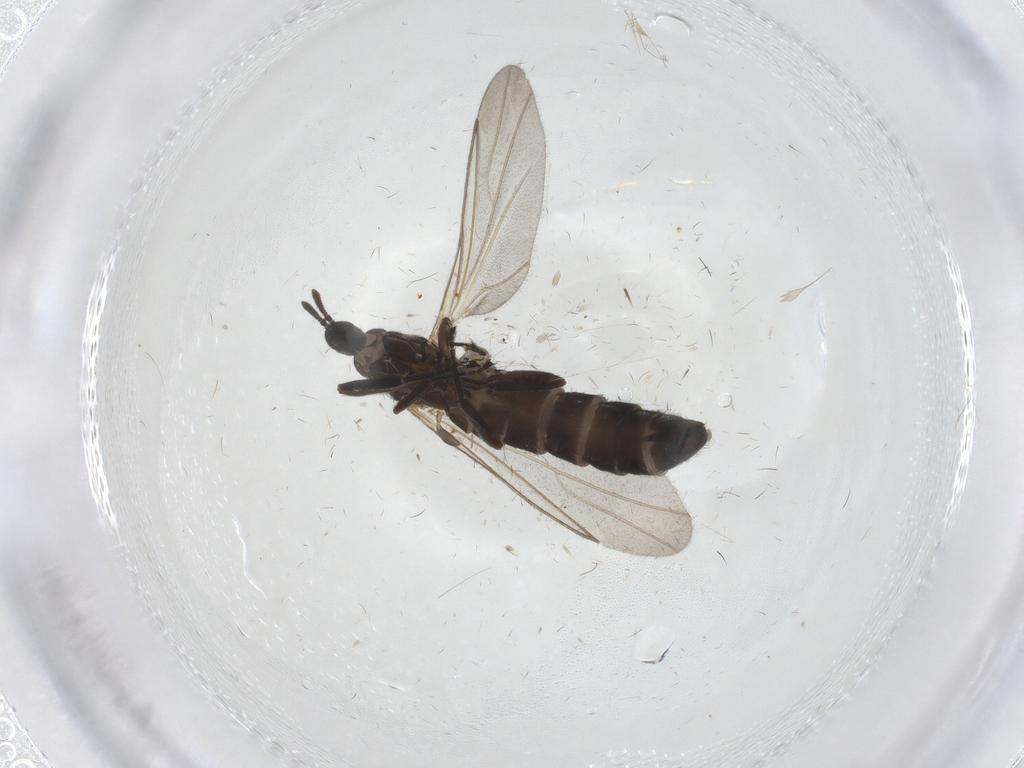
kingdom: Animalia
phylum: Arthropoda
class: Insecta
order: Diptera
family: Scatopsidae
